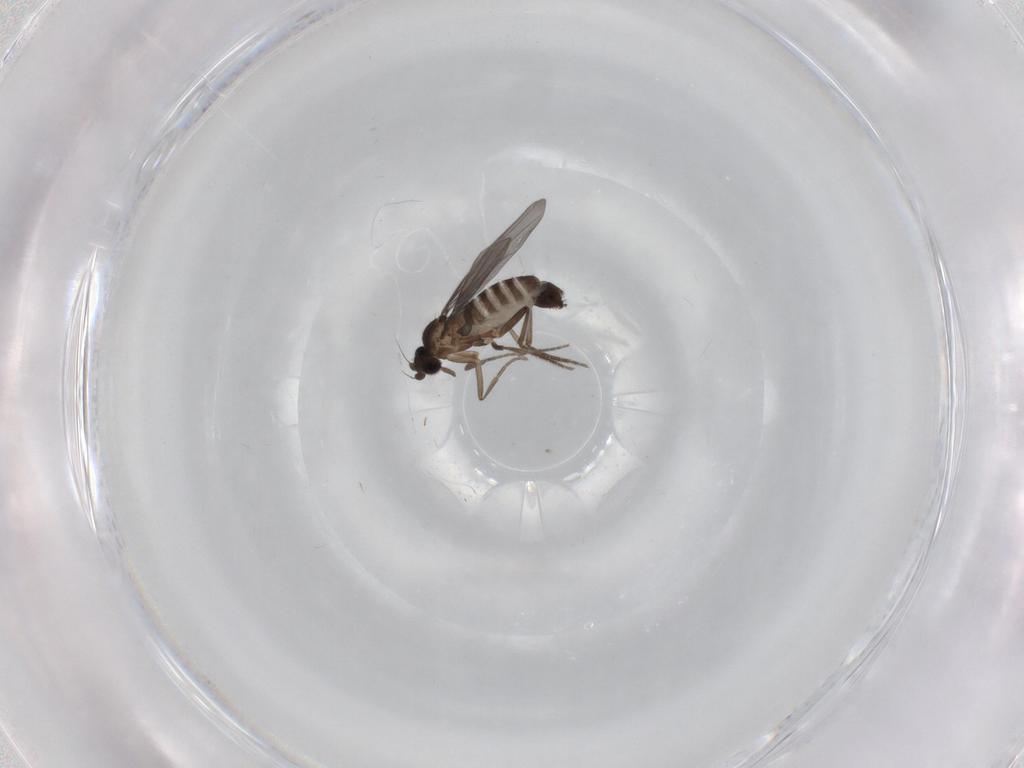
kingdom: Animalia
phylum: Arthropoda
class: Insecta
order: Diptera
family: Phoridae
